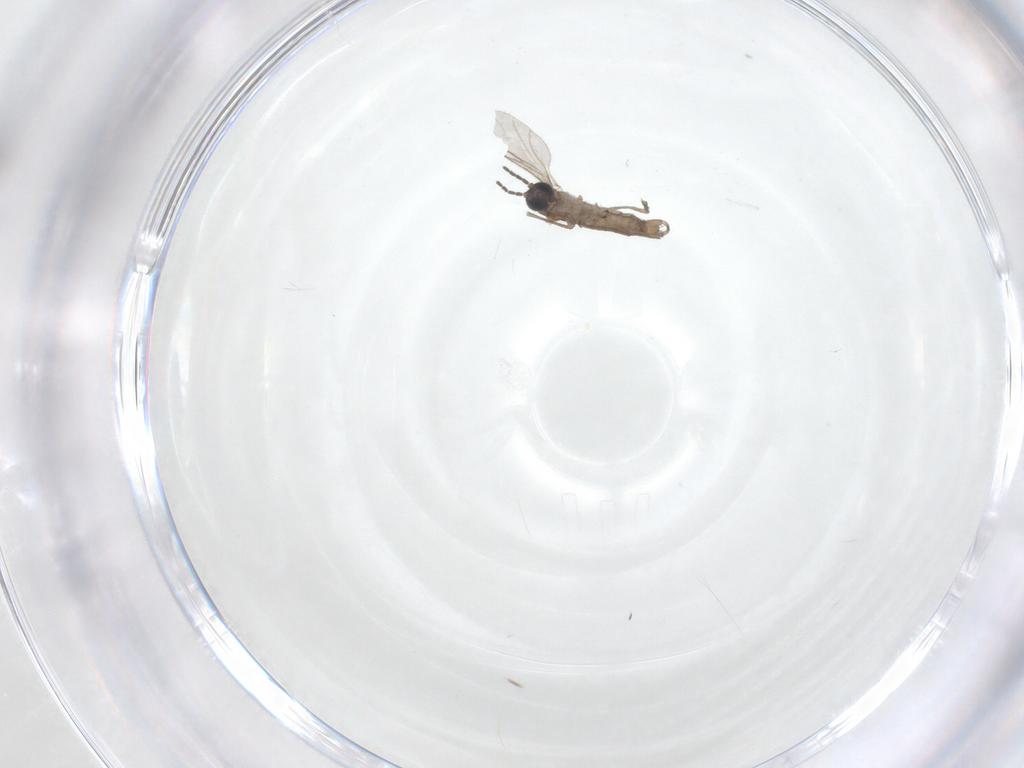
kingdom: Animalia
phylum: Arthropoda
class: Insecta
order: Diptera
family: Sciaridae
